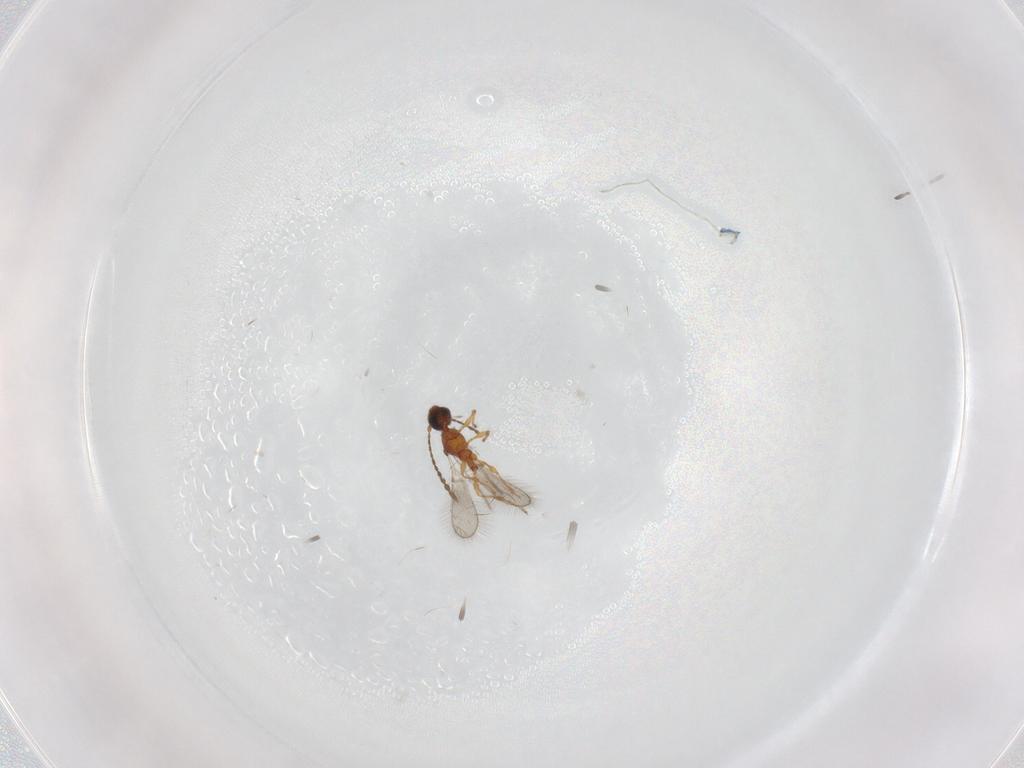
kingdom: Animalia
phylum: Arthropoda
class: Insecta
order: Hymenoptera
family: Diapriidae
